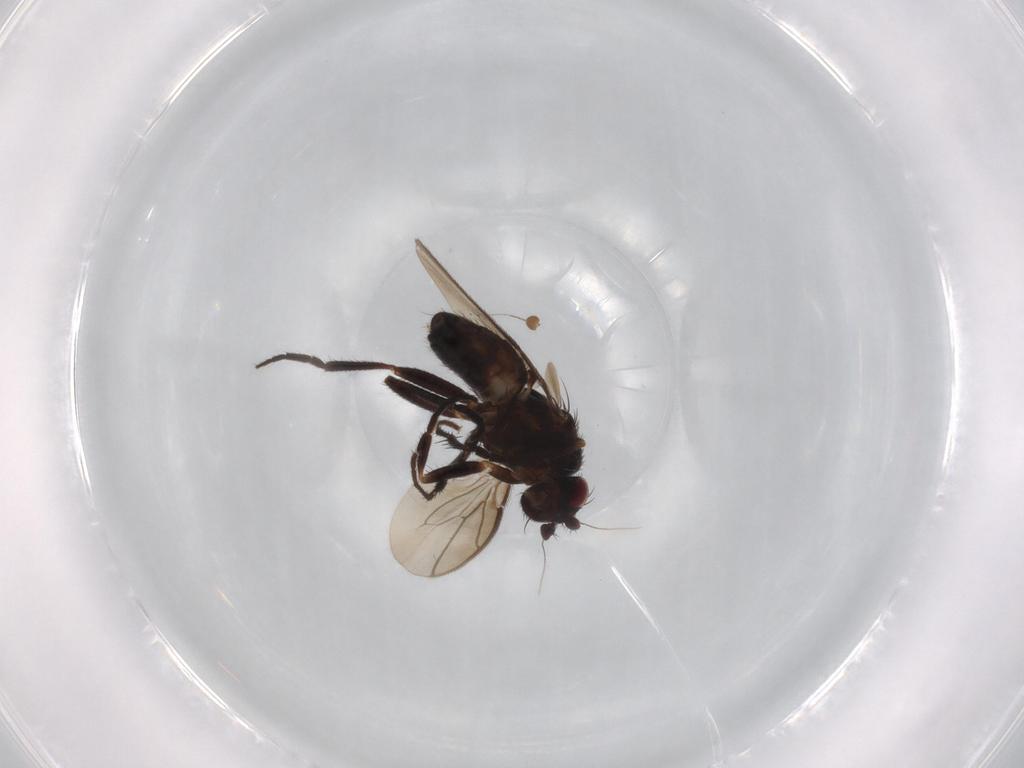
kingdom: Animalia
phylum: Arthropoda
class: Insecta
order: Diptera
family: Sphaeroceridae
